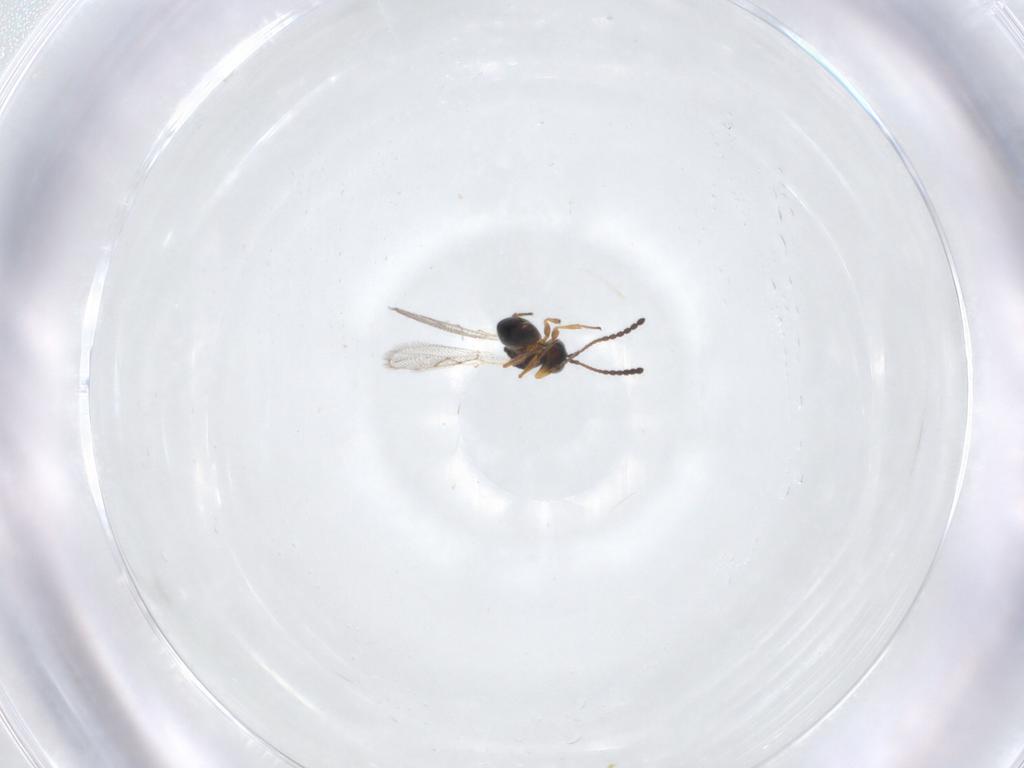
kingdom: Animalia
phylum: Arthropoda
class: Insecta
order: Hymenoptera
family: Figitidae
